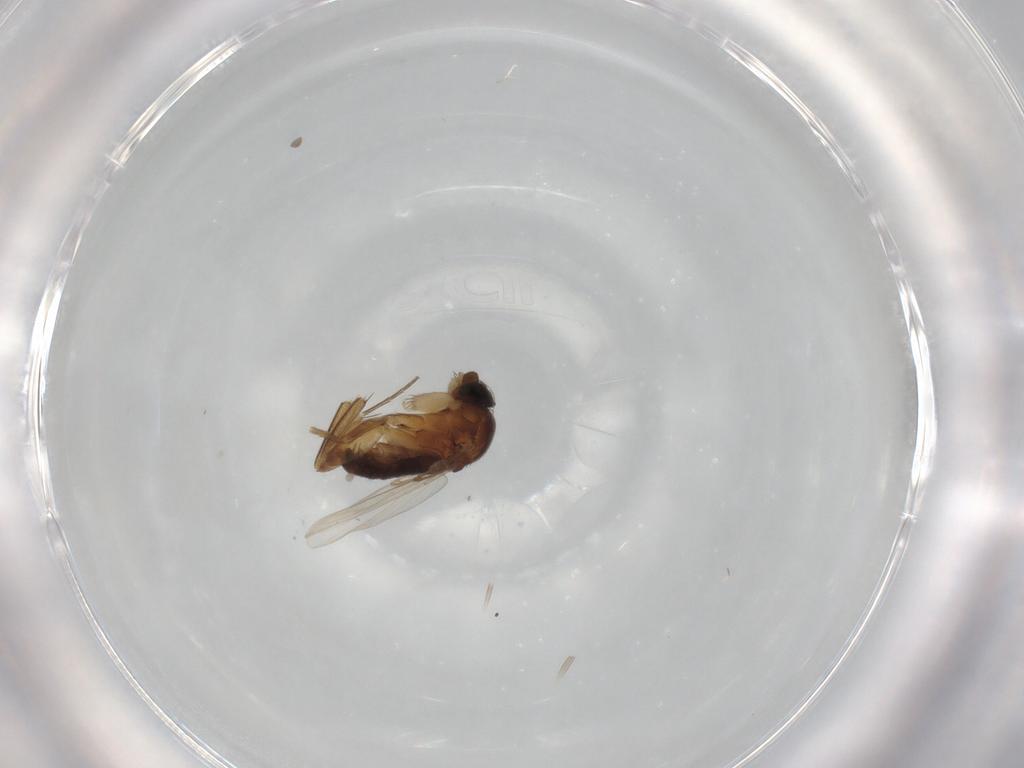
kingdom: Animalia
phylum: Arthropoda
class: Insecta
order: Diptera
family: Phoridae
